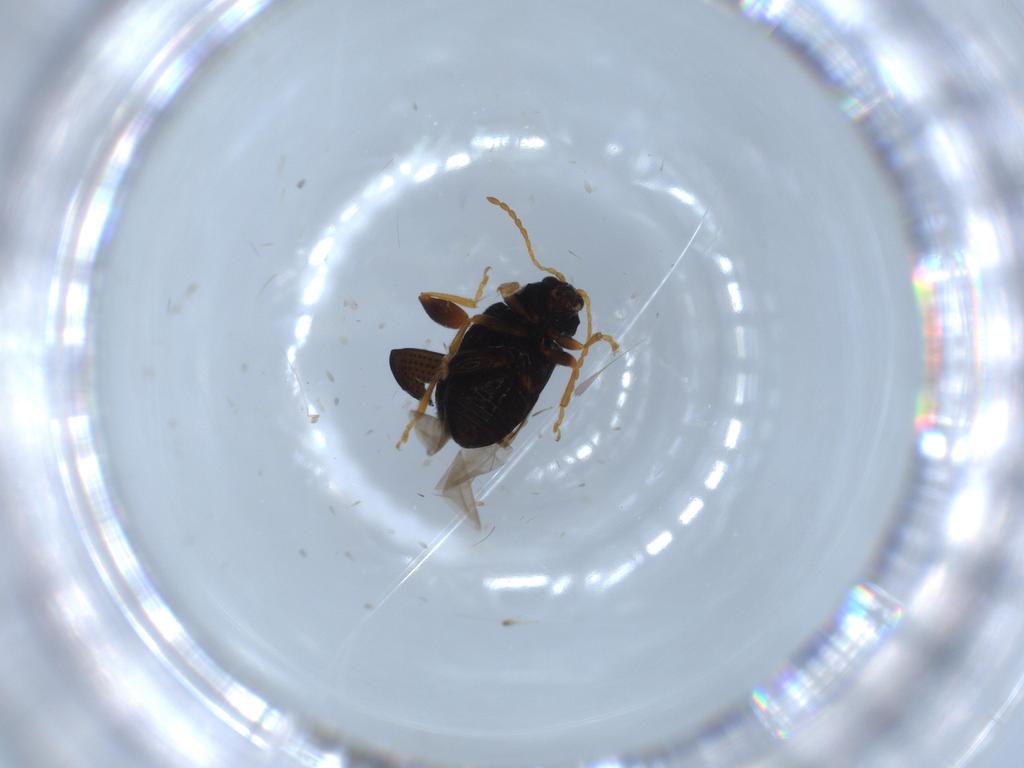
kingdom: Animalia
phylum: Arthropoda
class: Insecta
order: Coleoptera
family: Chrysomelidae
